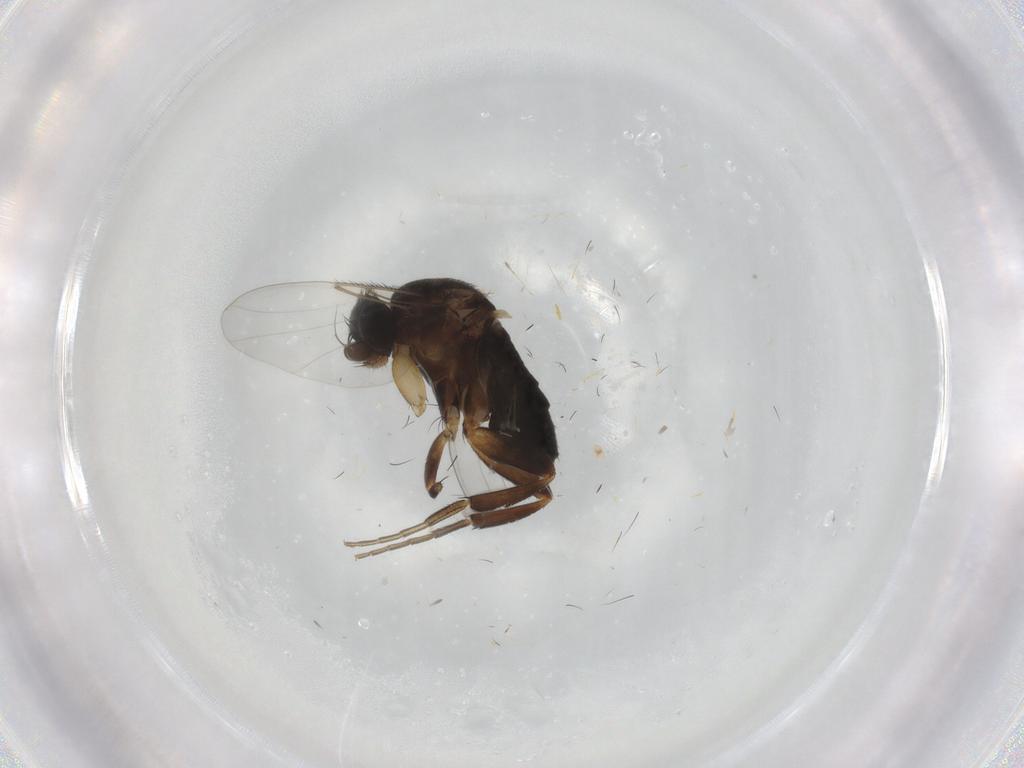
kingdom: Animalia
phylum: Arthropoda
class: Insecta
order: Diptera
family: Phoridae
